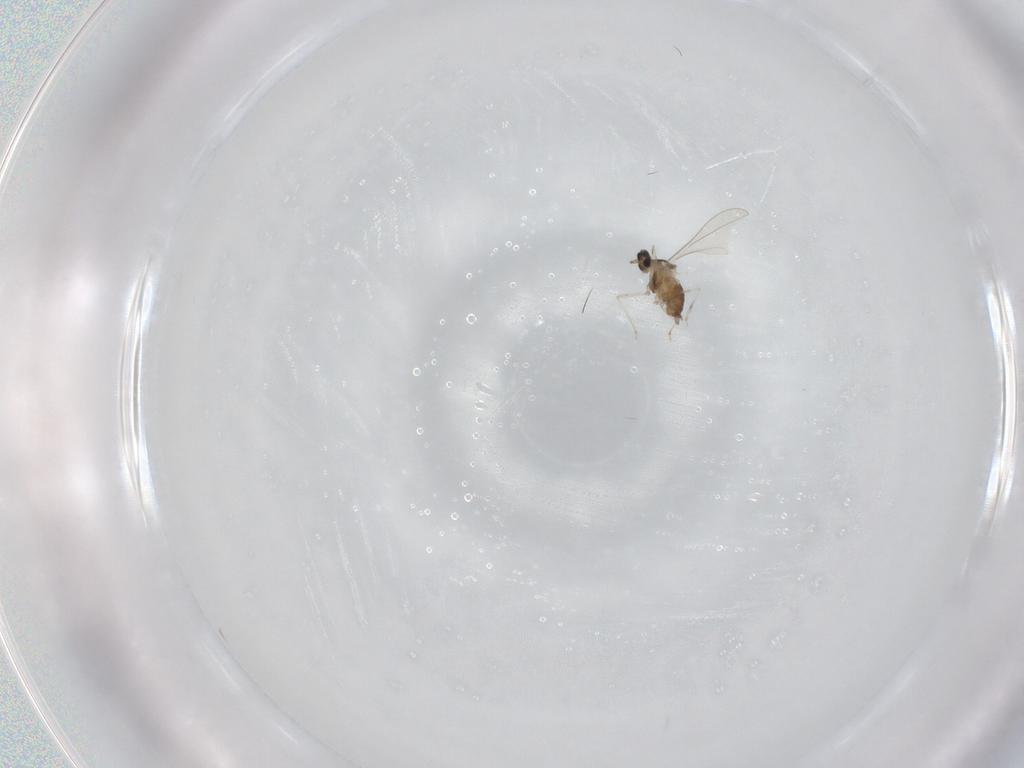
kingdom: Animalia
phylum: Arthropoda
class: Insecta
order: Diptera
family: Cecidomyiidae
